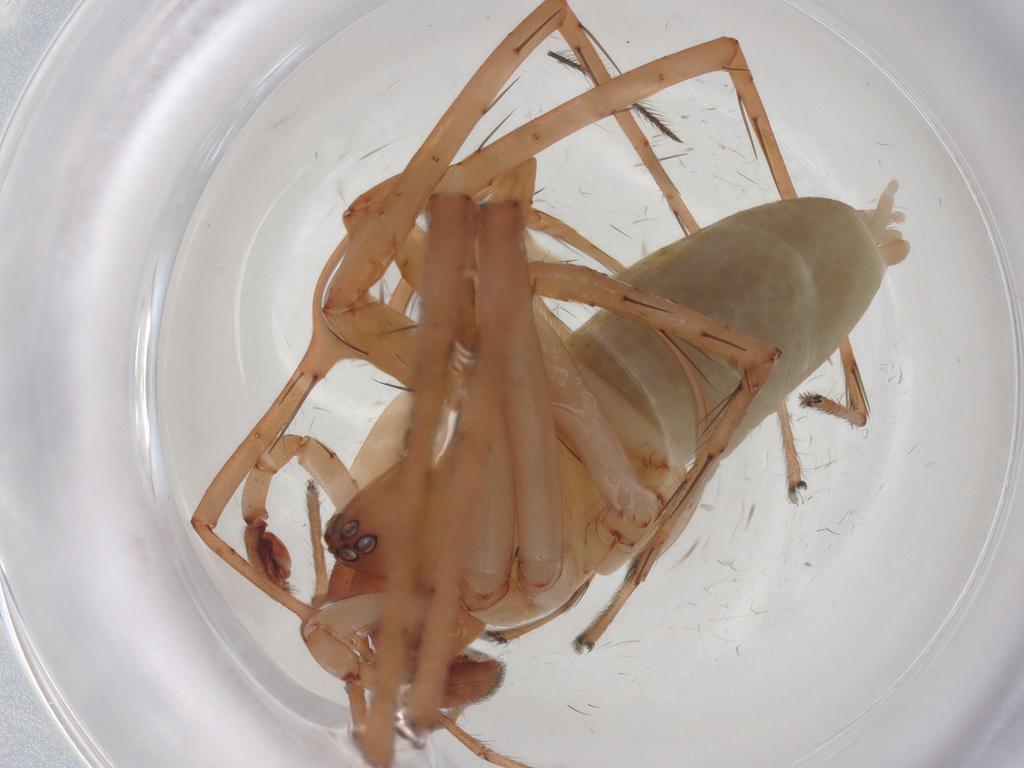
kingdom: Animalia
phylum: Arthropoda
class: Arachnida
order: Araneae
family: Anyphaenidae
